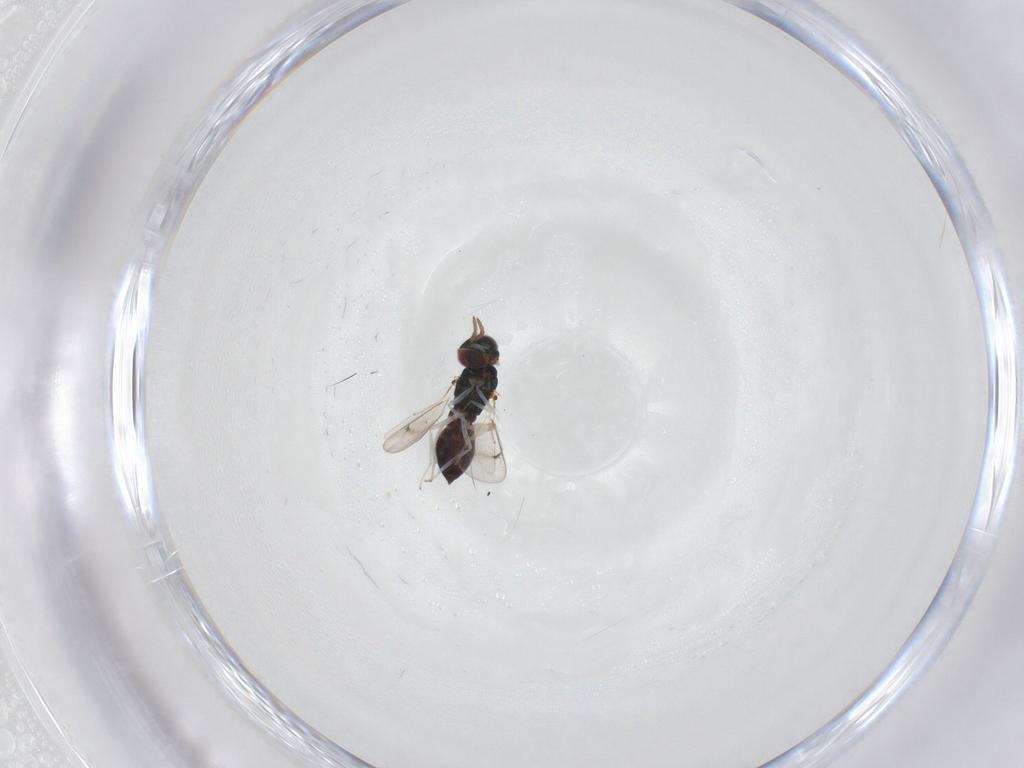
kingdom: Animalia
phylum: Arthropoda
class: Insecta
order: Hymenoptera
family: Eulophidae
